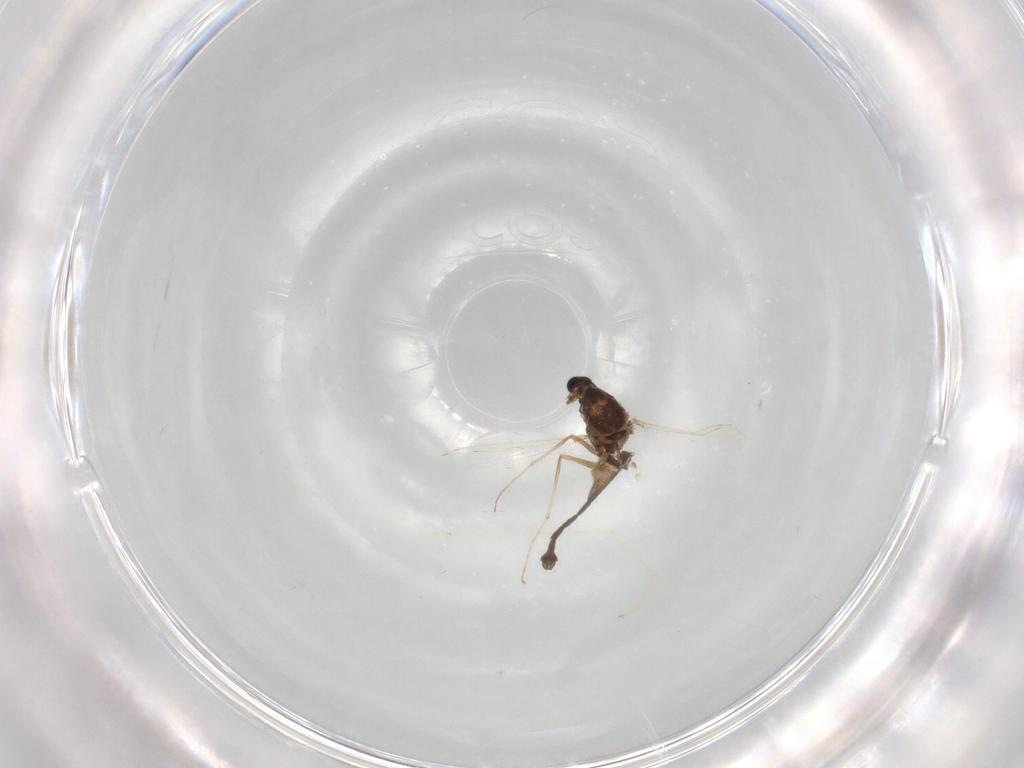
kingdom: Animalia
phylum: Arthropoda
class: Insecta
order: Diptera
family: Cecidomyiidae
